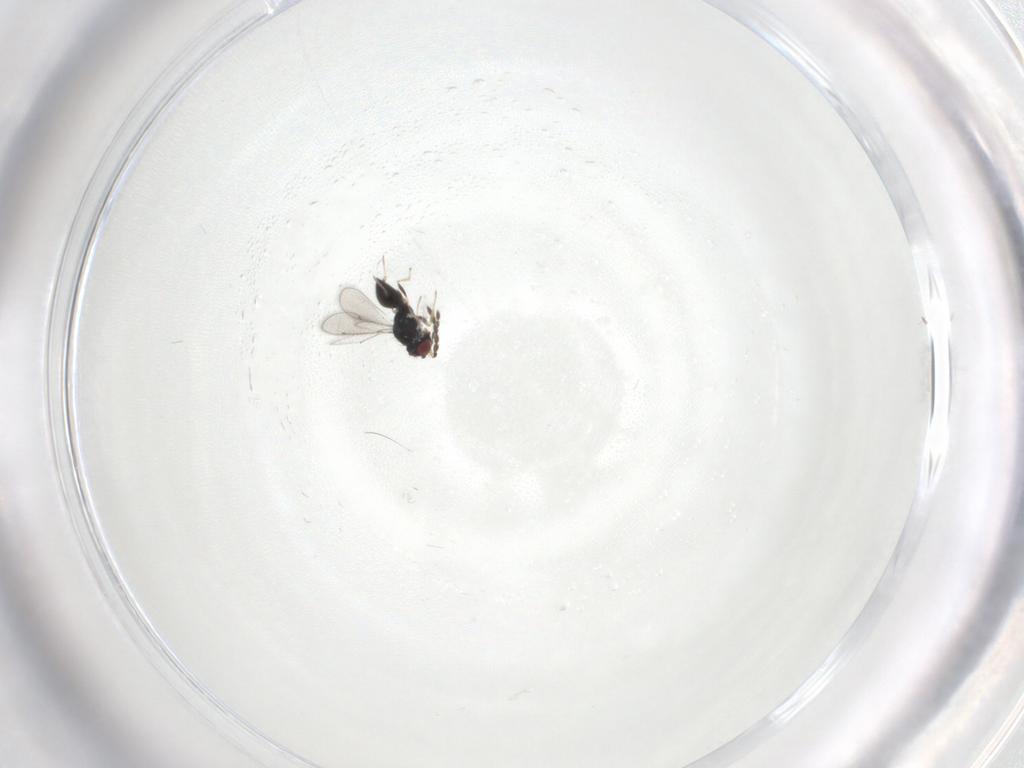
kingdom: Animalia
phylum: Arthropoda
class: Insecta
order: Hymenoptera
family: Eulophidae
